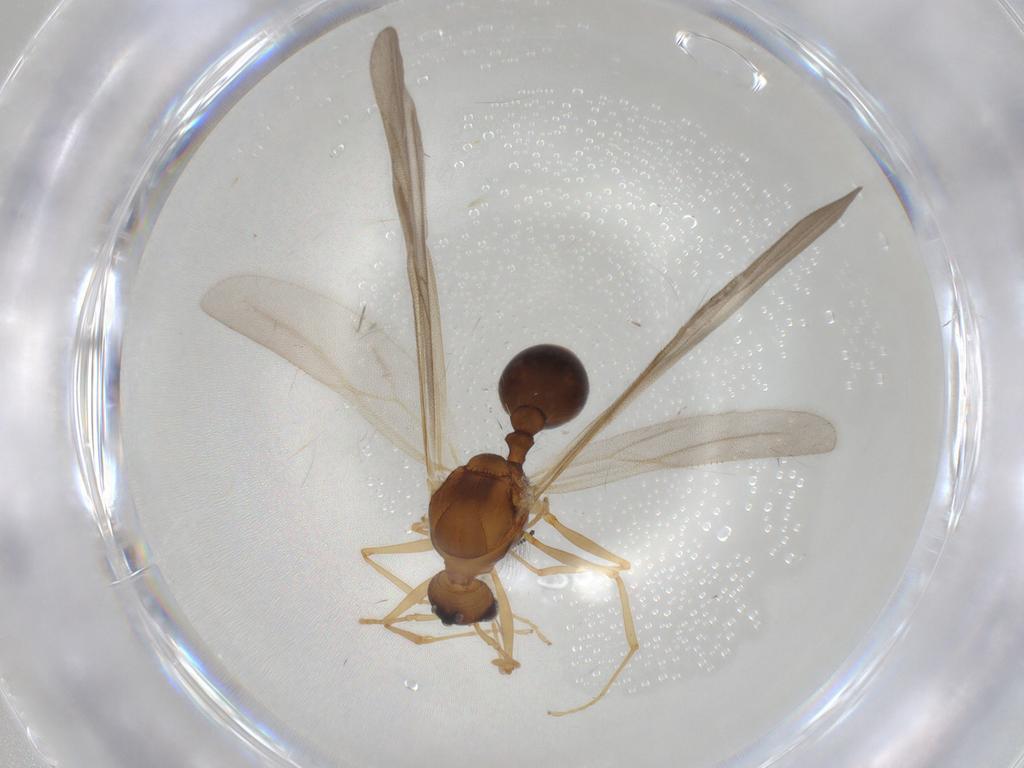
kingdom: Animalia
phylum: Arthropoda
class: Insecta
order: Hymenoptera
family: Formicidae
